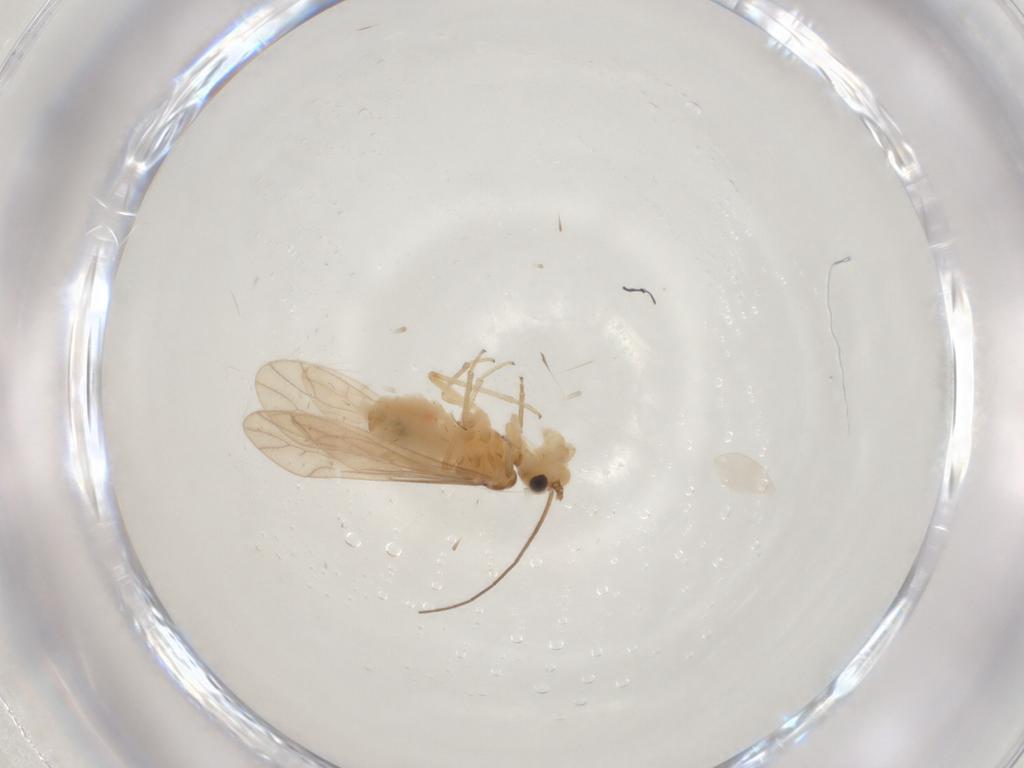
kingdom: Animalia
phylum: Arthropoda
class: Insecta
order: Psocodea
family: Caeciliusidae
